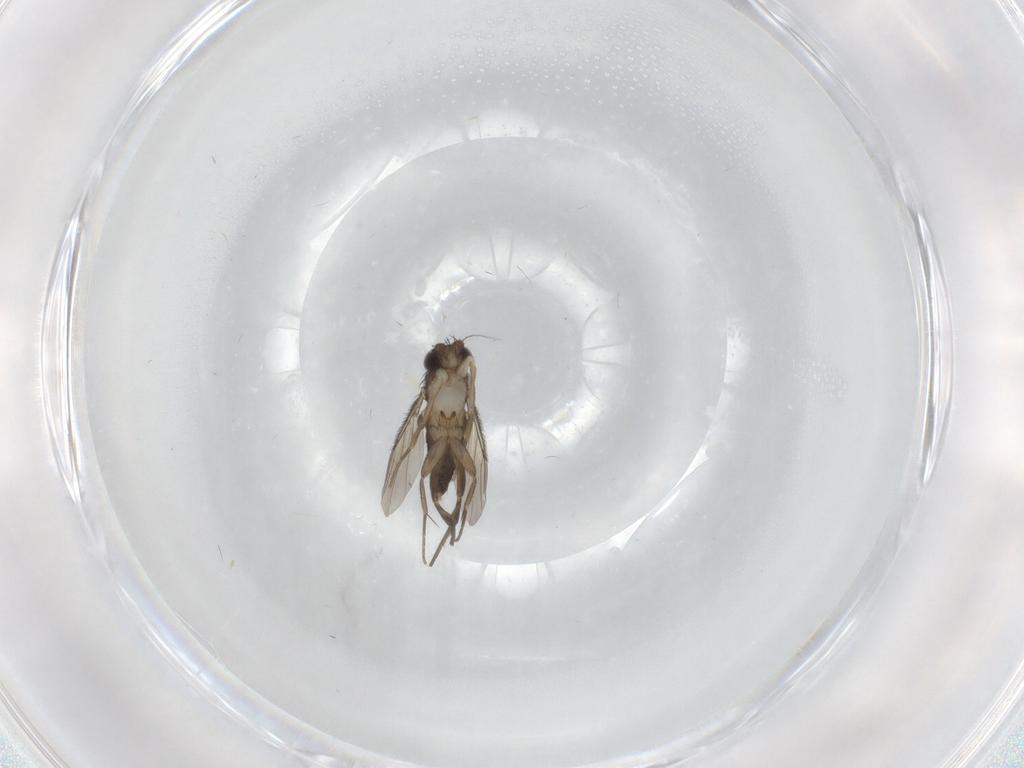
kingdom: Animalia
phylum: Arthropoda
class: Insecta
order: Diptera
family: Phoridae
